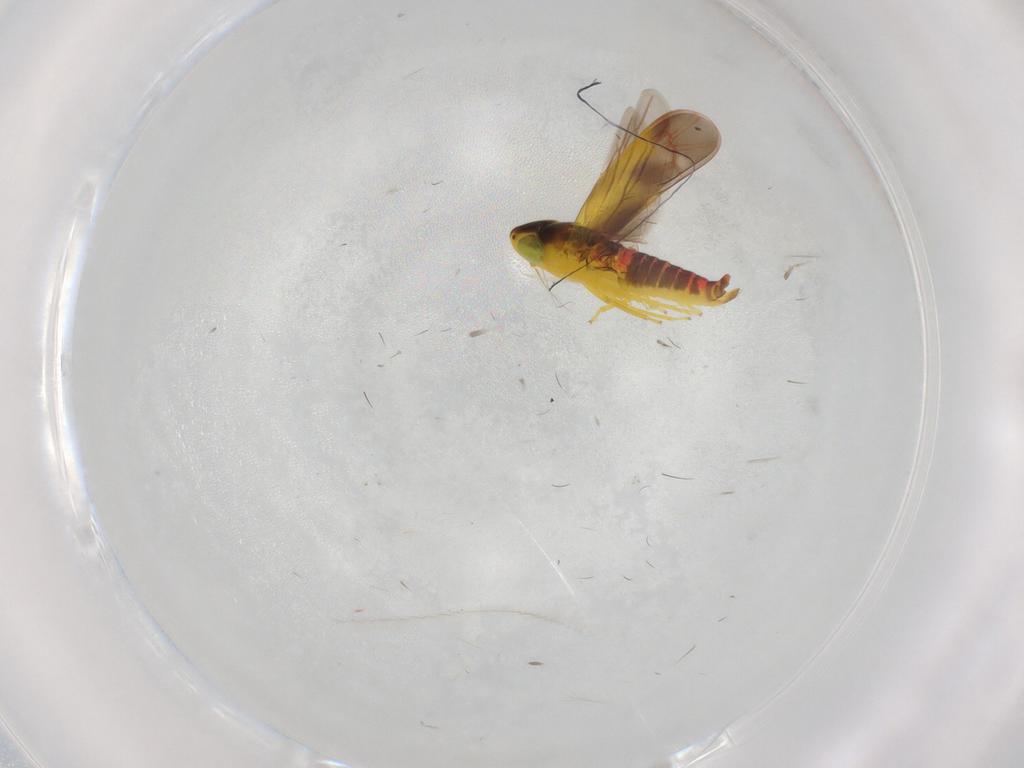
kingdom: Animalia
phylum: Arthropoda
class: Insecta
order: Hemiptera
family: Cicadellidae
